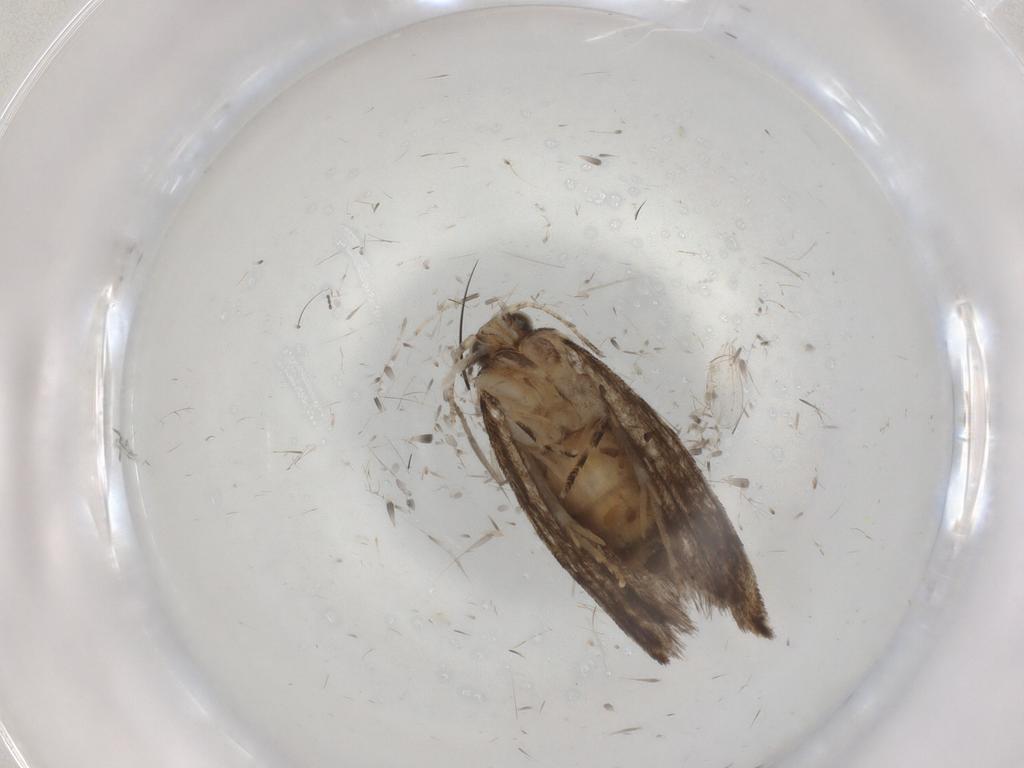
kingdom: Animalia
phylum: Arthropoda
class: Insecta
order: Lepidoptera
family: Tineidae
